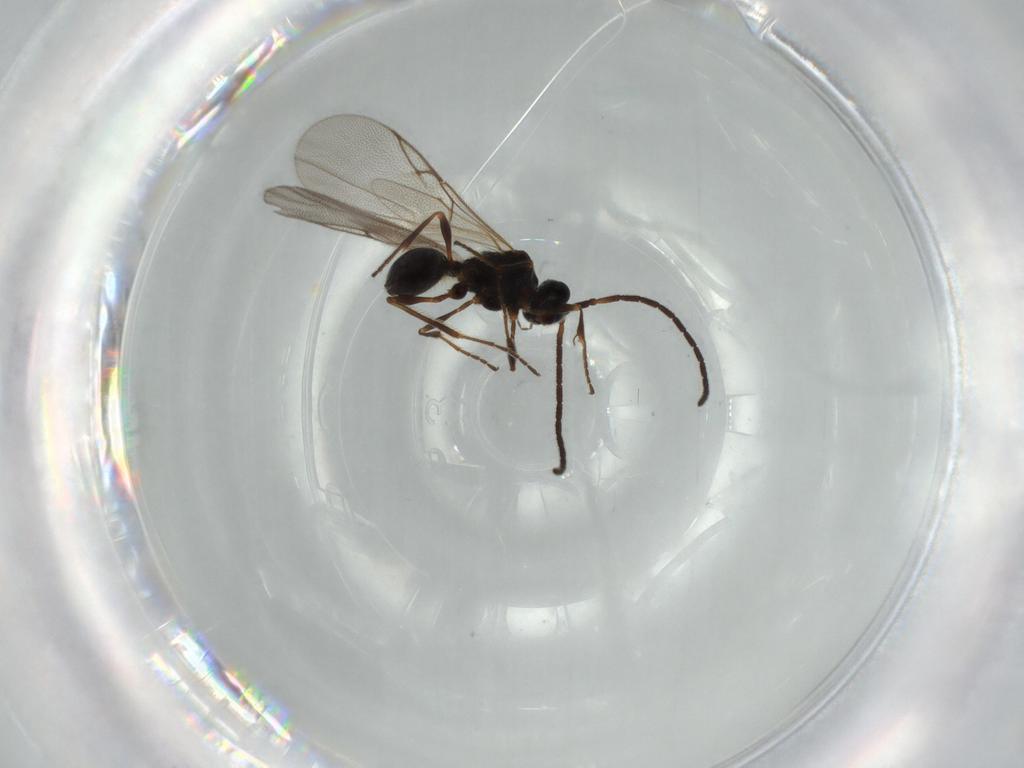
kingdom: Animalia
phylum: Arthropoda
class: Insecta
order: Hymenoptera
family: Diapriidae
